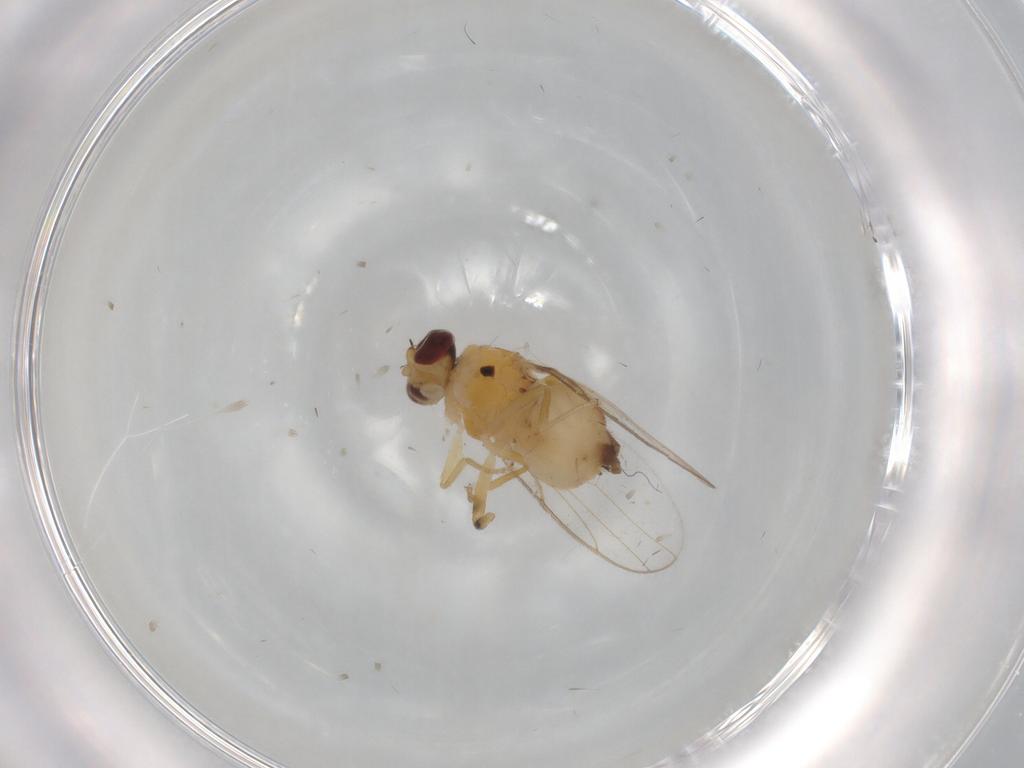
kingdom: Animalia
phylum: Arthropoda
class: Insecta
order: Diptera
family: Chloropidae
